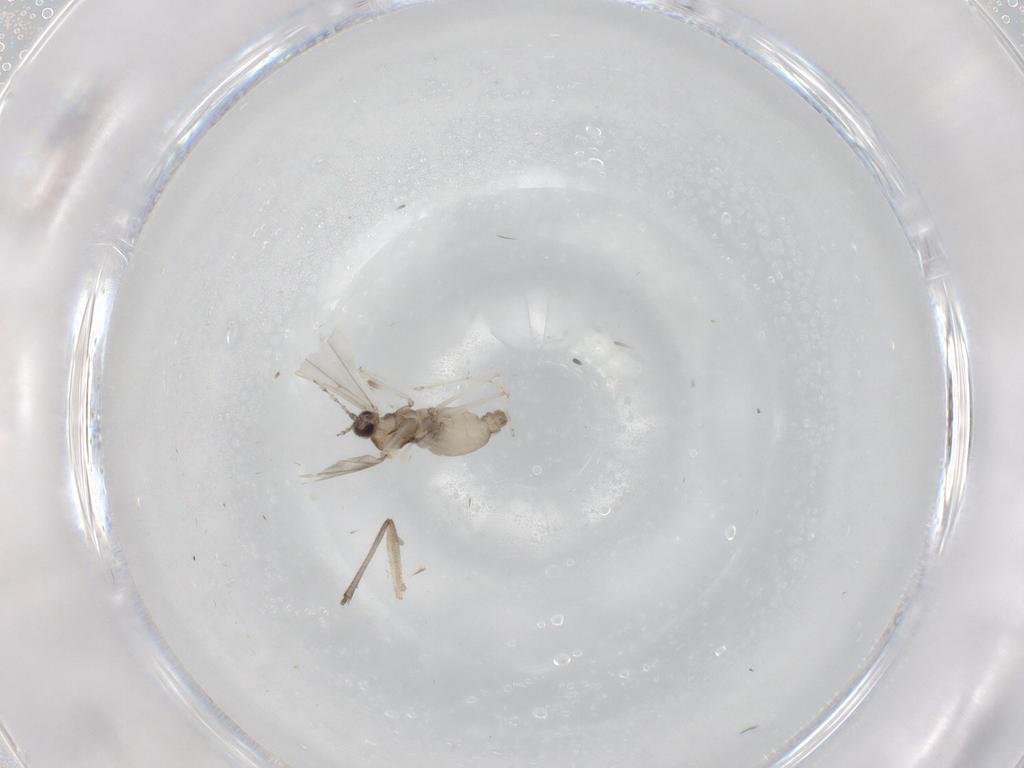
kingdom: Animalia
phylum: Arthropoda
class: Insecta
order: Diptera
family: Cecidomyiidae
